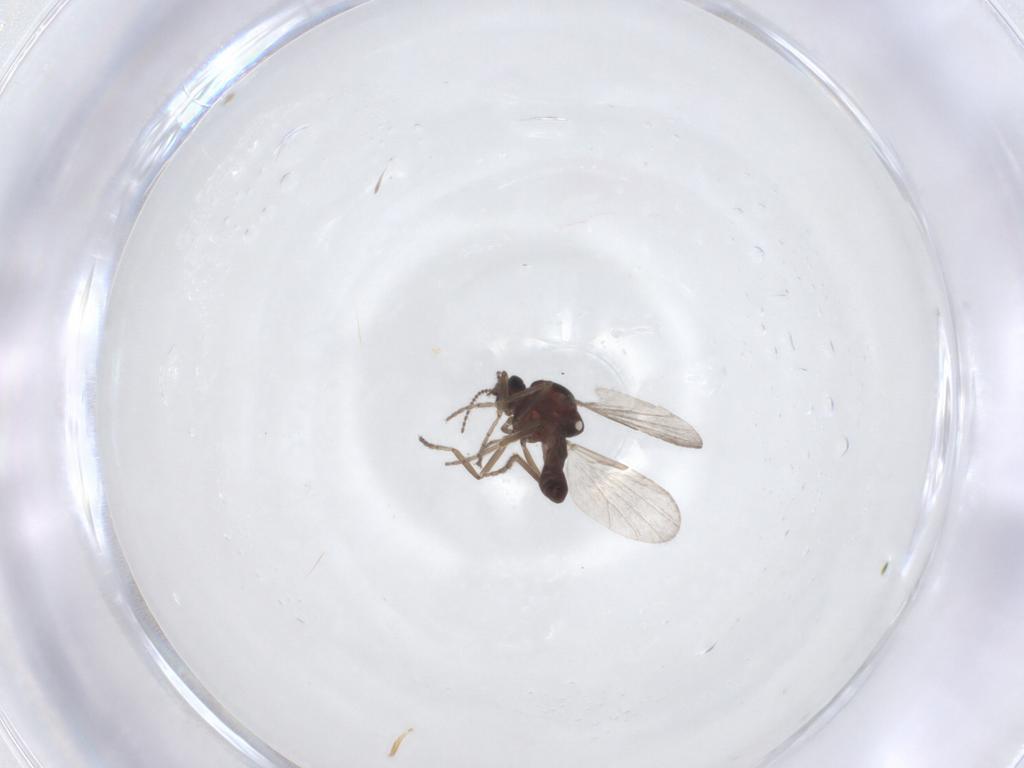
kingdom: Animalia
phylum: Arthropoda
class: Insecta
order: Diptera
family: Ceratopogonidae
